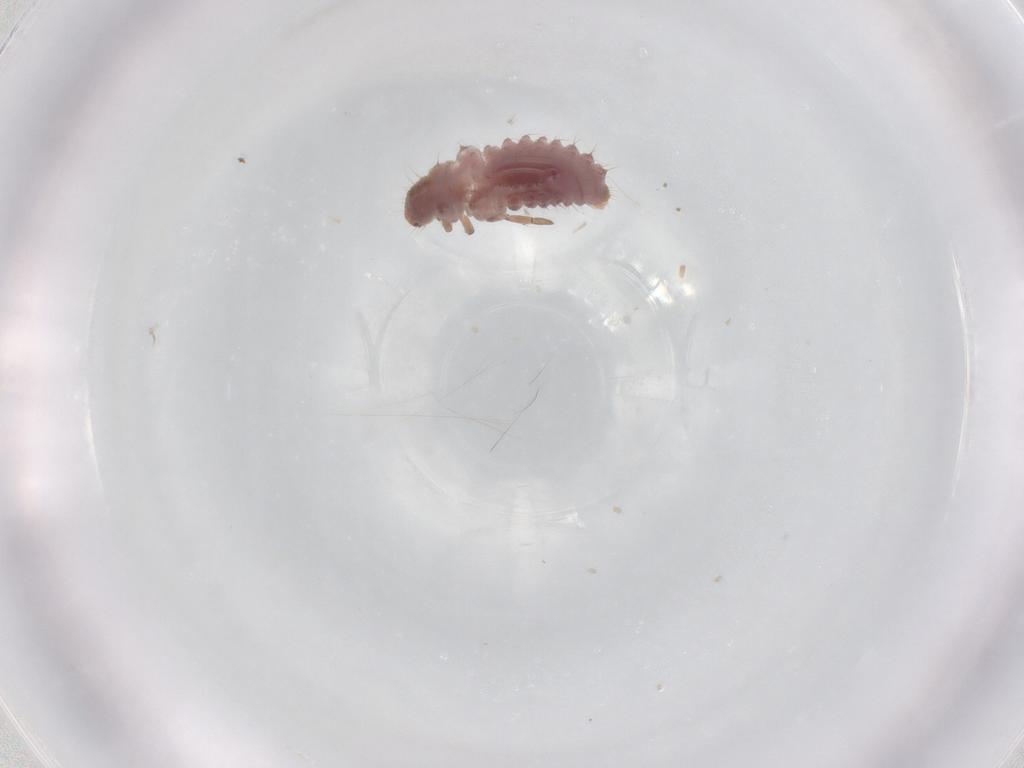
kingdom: Animalia
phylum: Arthropoda
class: Insecta
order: Coleoptera
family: Coccinellidae
